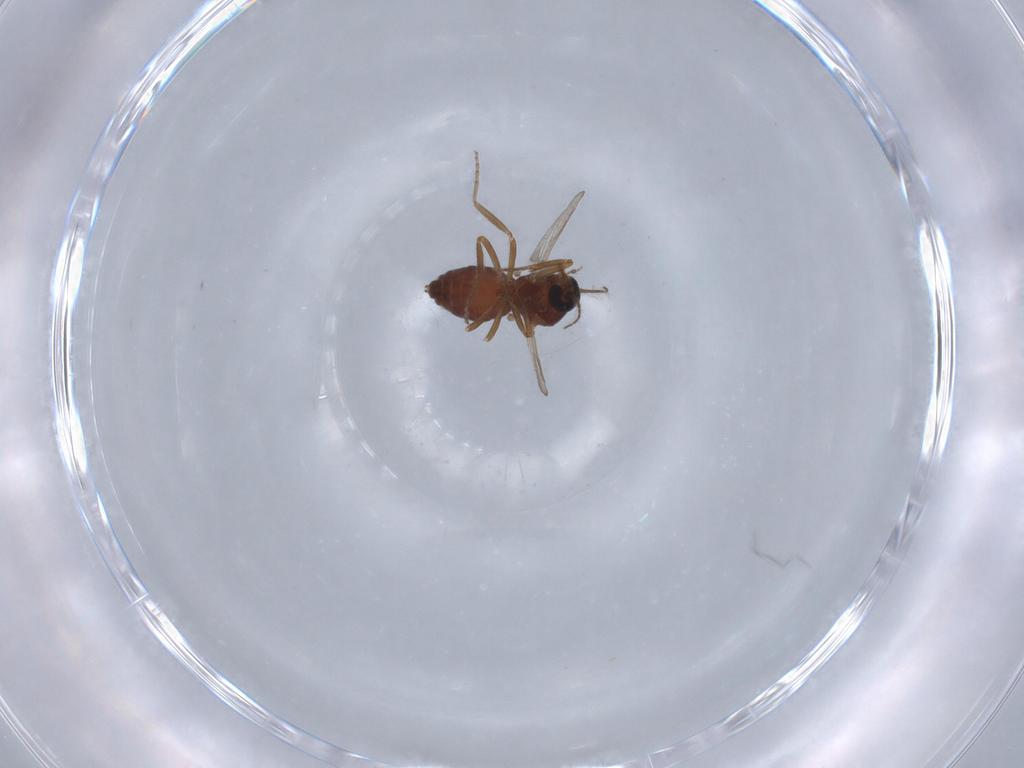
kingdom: Animalia
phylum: Arthropoda
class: Insecta
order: Diptera
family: Ceratopogonidae
